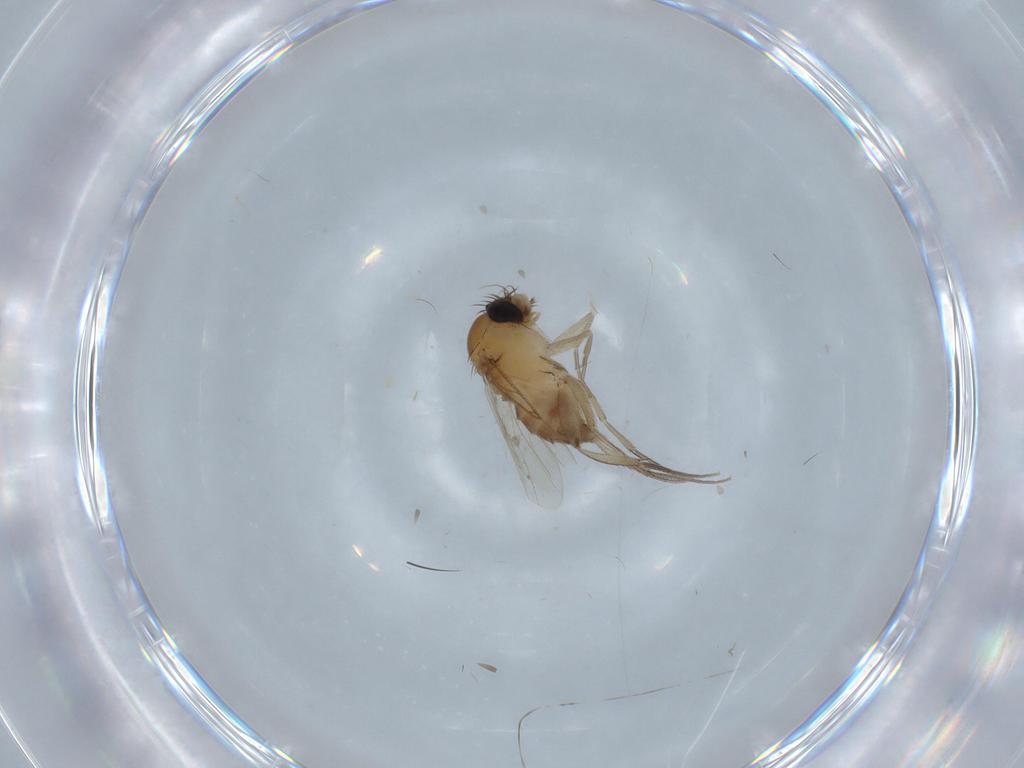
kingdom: Animalia
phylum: Arthropoda
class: Insecta
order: Diptera
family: Phoridae
